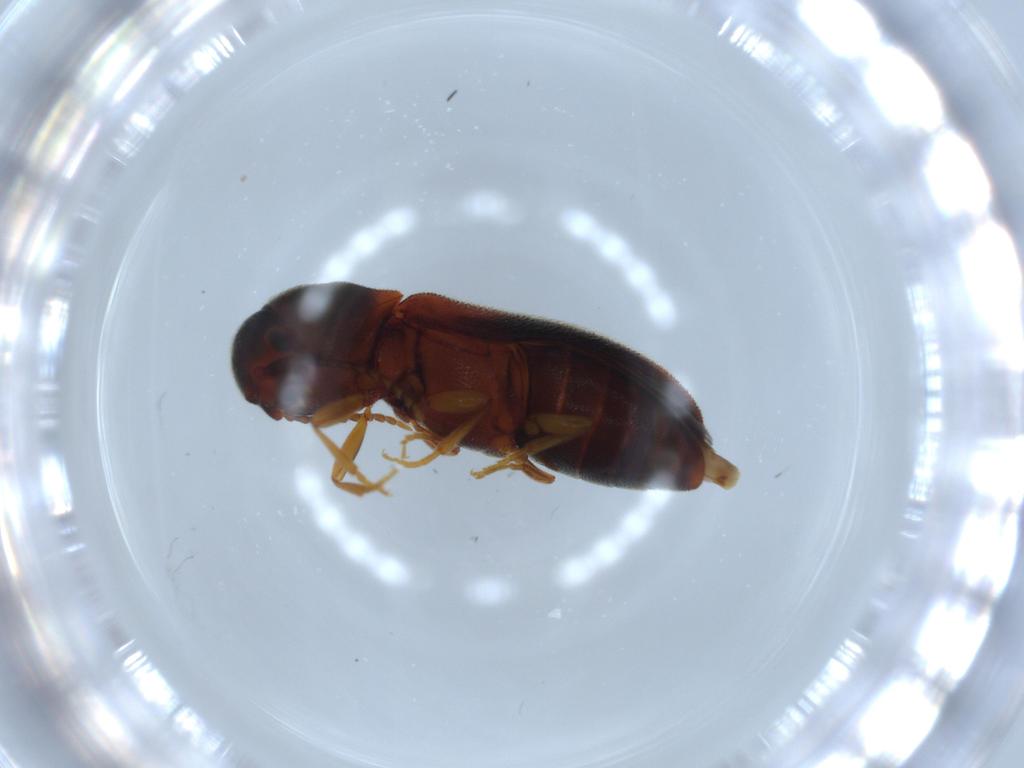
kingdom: Animalia
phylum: Arthropoda
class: Insecta
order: Coleoptera
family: Eucnemidae
